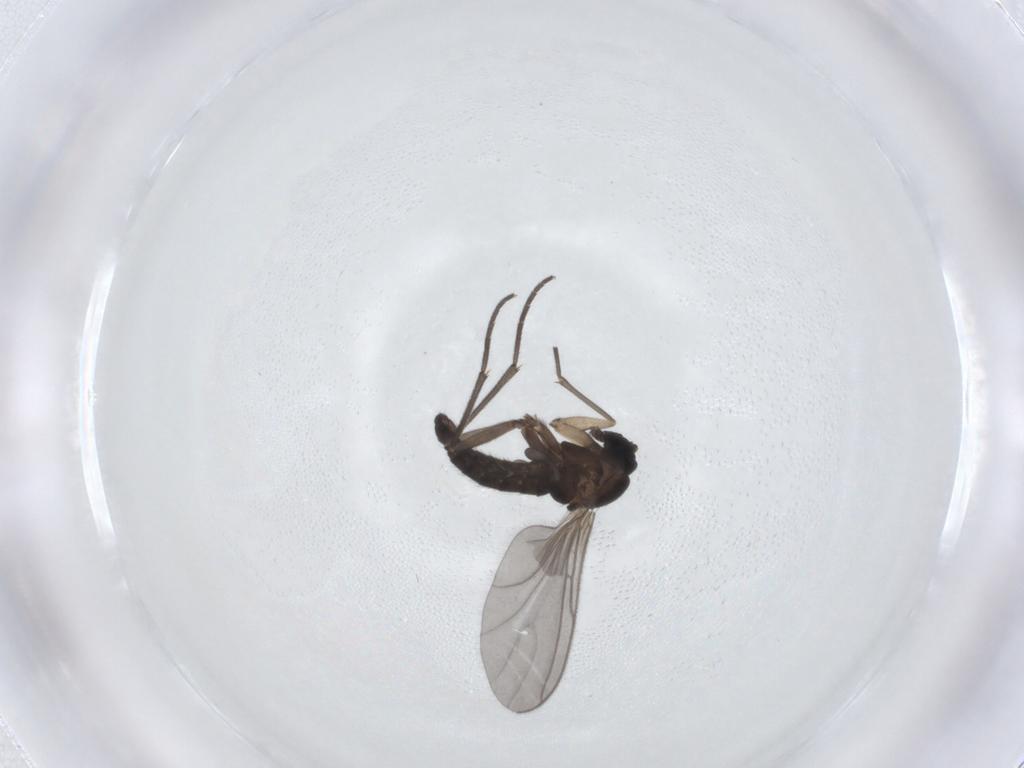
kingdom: Animalia
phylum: Arthropoda
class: Insecta
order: Diptera
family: Sciaridae
